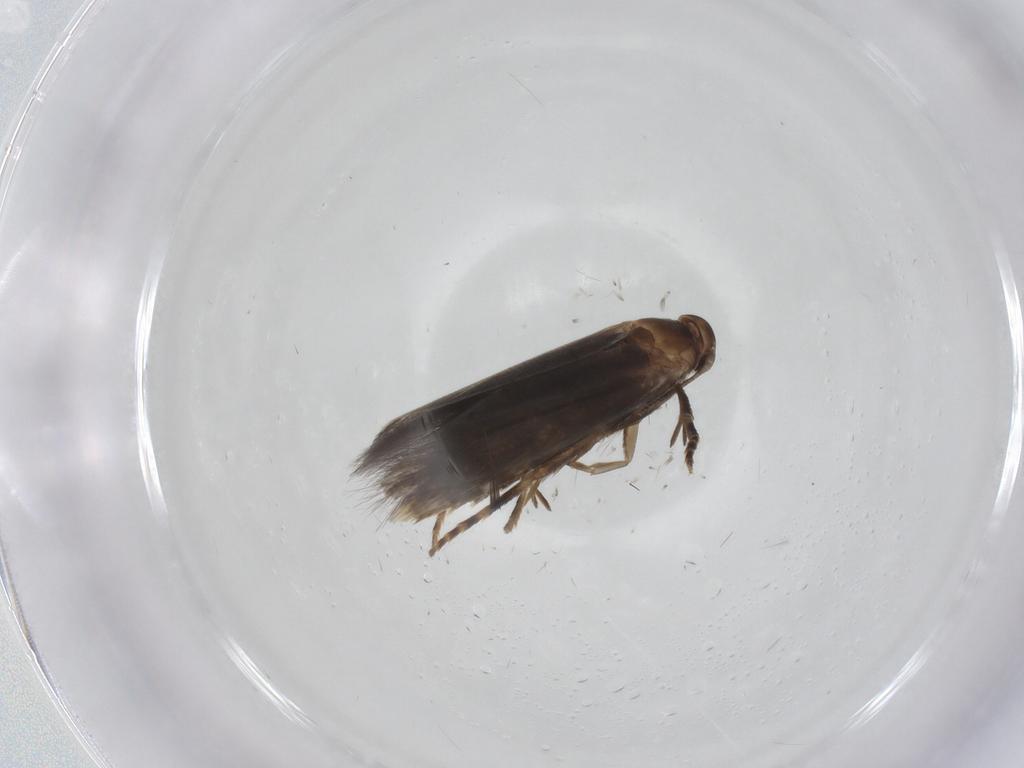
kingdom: Animalia
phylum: Arthropoda
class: Insecta
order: Lepidoptera
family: Elachistidae
